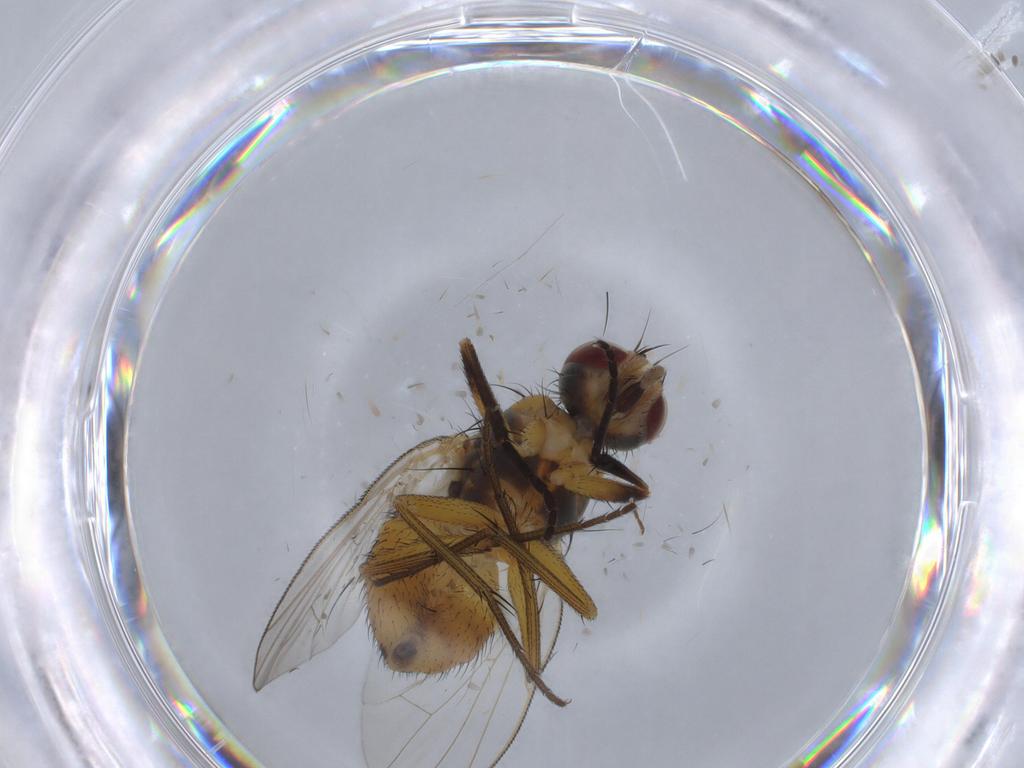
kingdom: Animalia
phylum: Arthropoda
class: Insecta
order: Diptera
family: Muscidae
